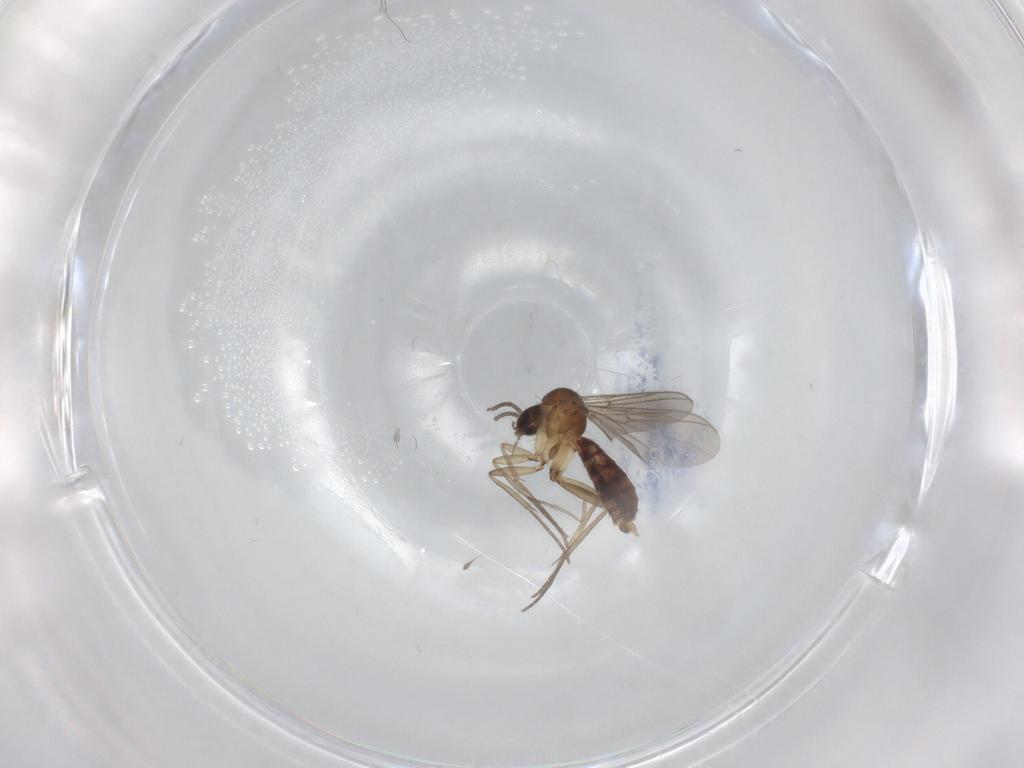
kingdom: Animalia
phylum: Arthropoda
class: Insecta
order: Diptera
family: Psychodidae
